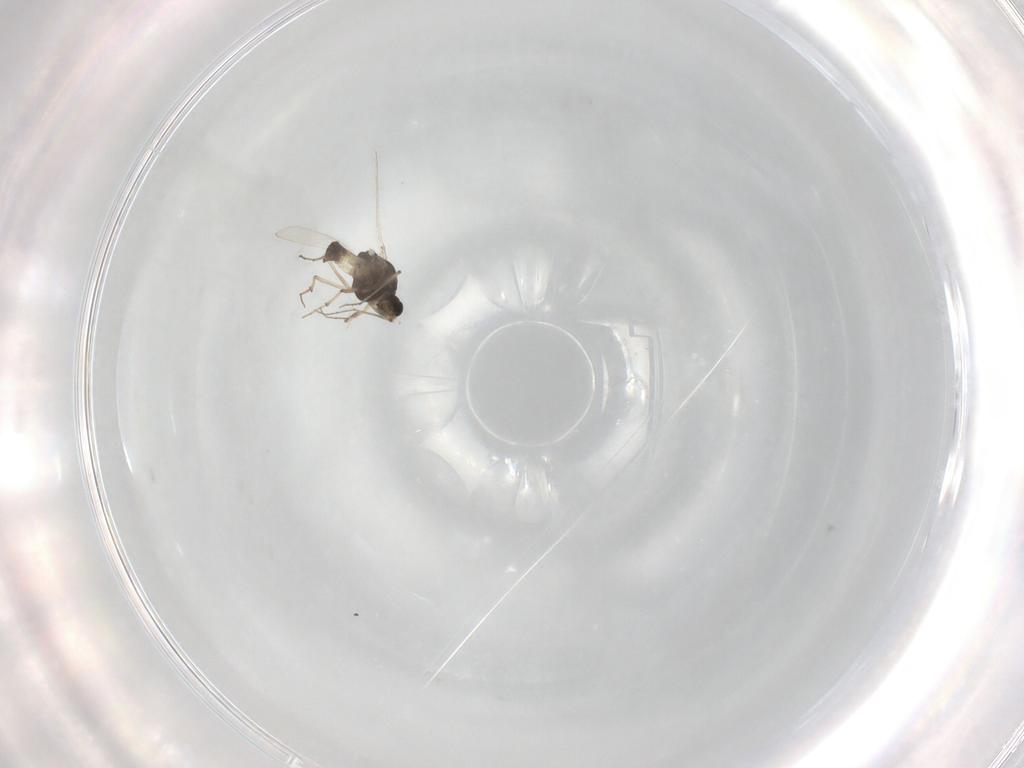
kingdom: Animalia
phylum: Arthropoda
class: Insecta
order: Diptera
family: Chironomidae
